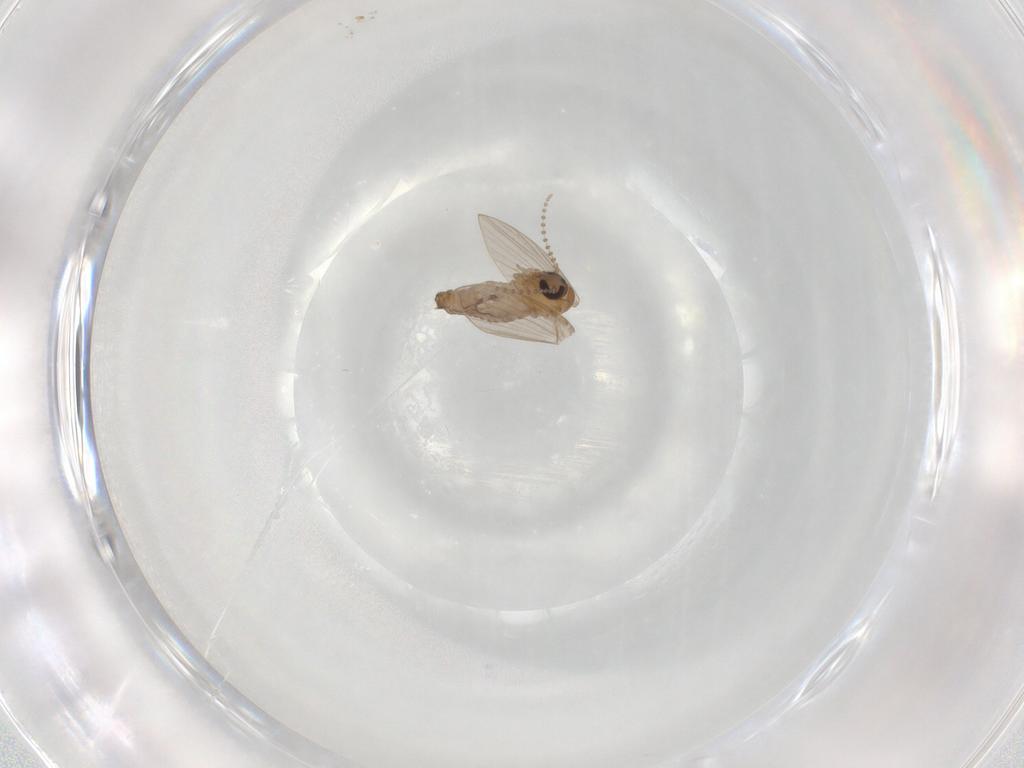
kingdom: Animalia
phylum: Arthropoda
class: Insecta
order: Diptera
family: Psychodidae
